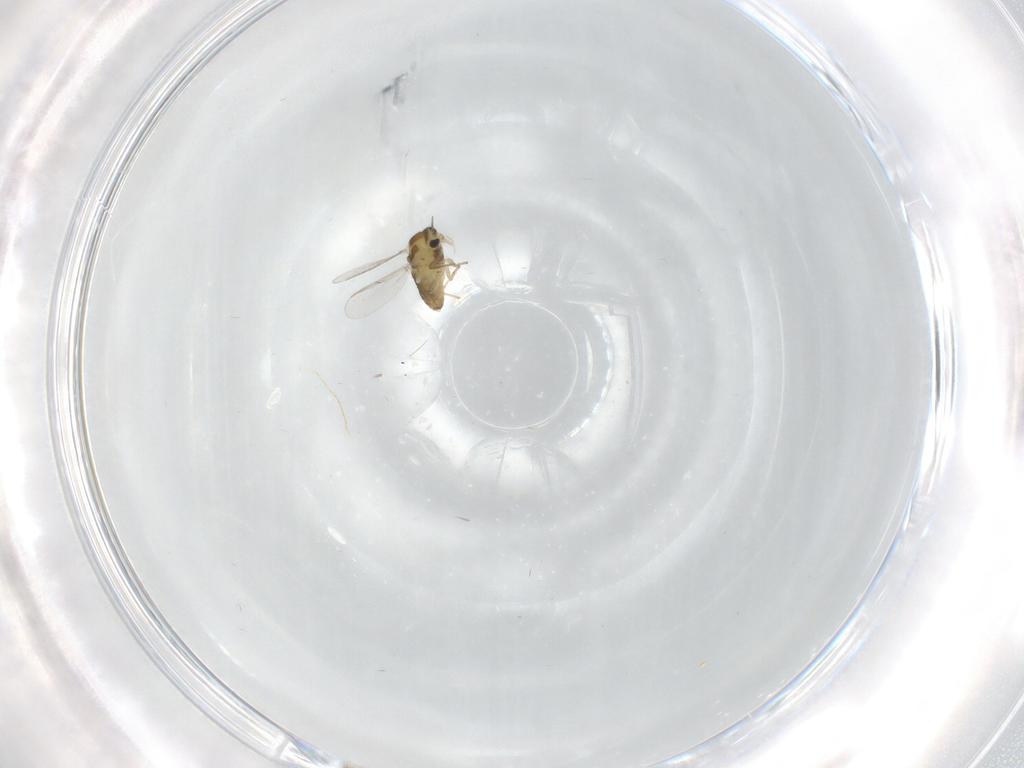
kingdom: Animalia
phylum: Arthropoda
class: Insecta
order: Diptera
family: Chironomidae
